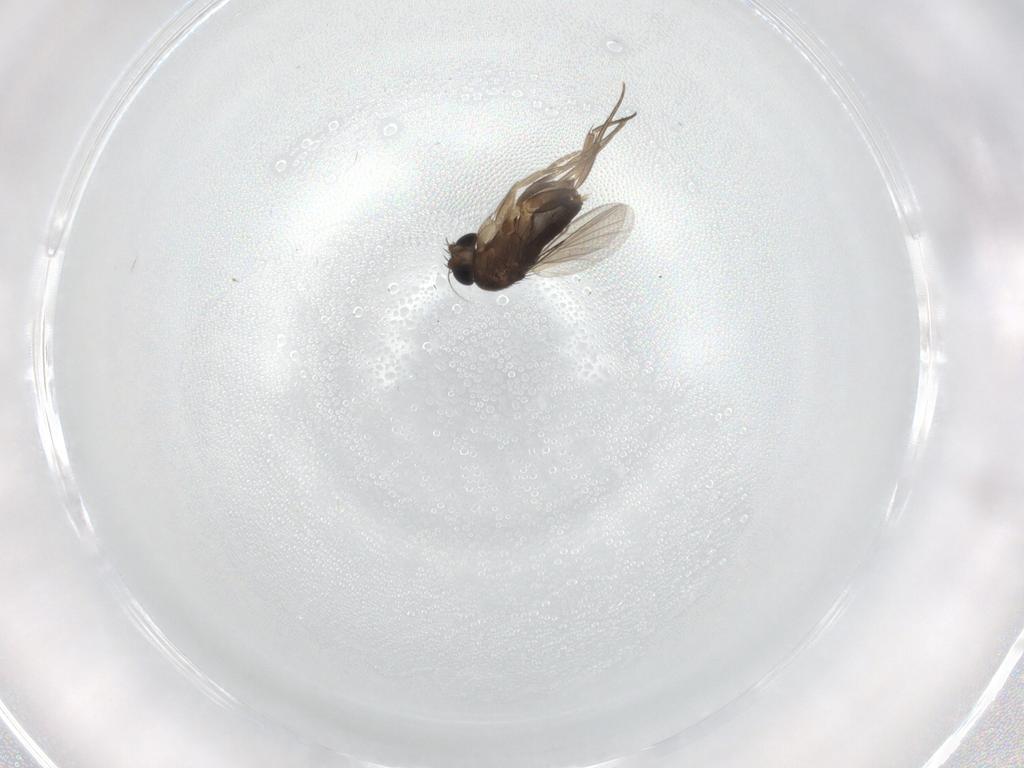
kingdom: Animalia
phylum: Arthropoda
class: Insecta
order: Diptera
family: Phoridae
